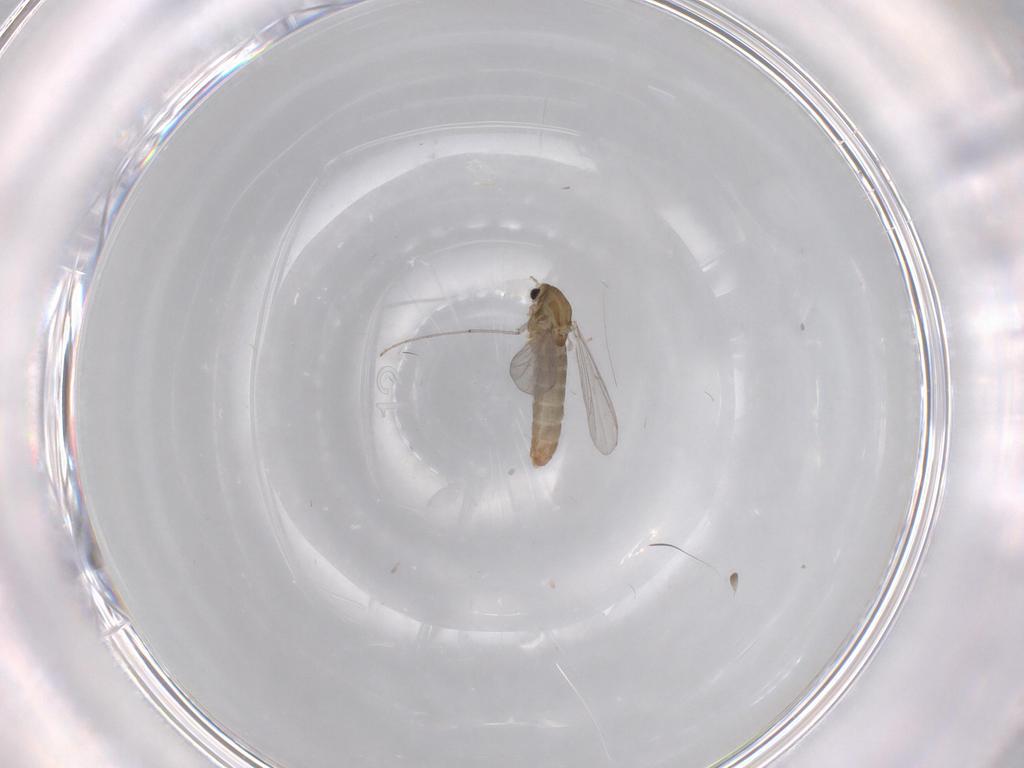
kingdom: Animalia
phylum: Arthropoda
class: Insecta
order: Diptera
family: Chironomidae
